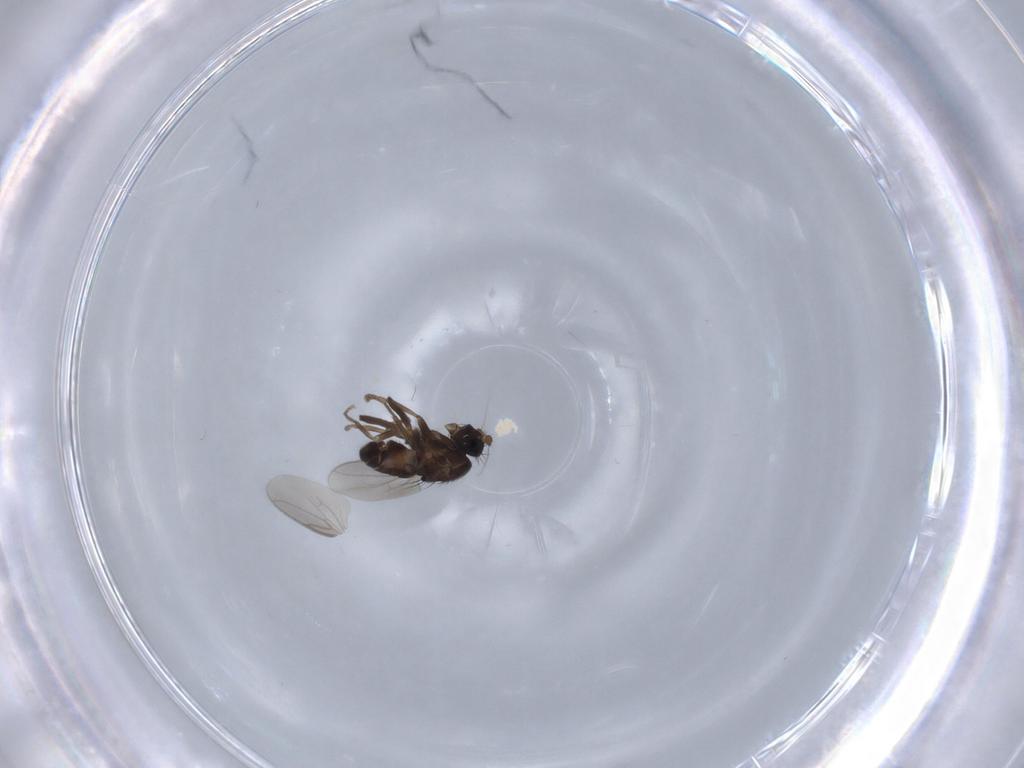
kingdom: Animalia
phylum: Arthropoda
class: Insecta
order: Diptera
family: Sphaeroceridae
